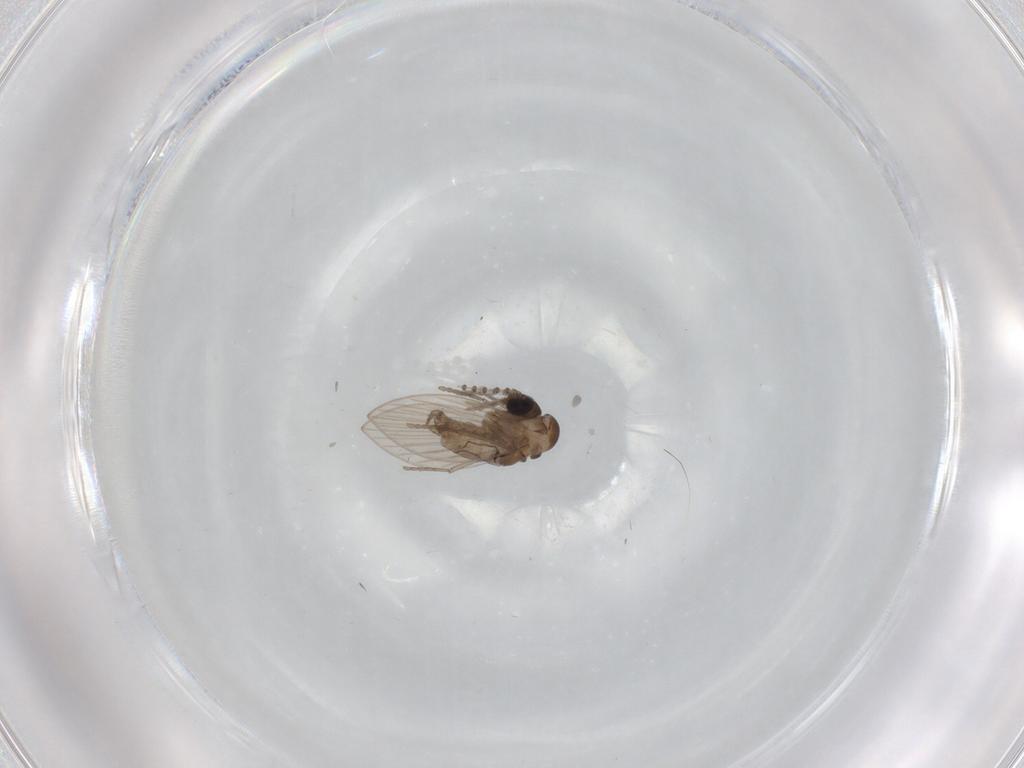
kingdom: Animalia
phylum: Arthropoda
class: Insecta
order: Diptera
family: Psychodidae
